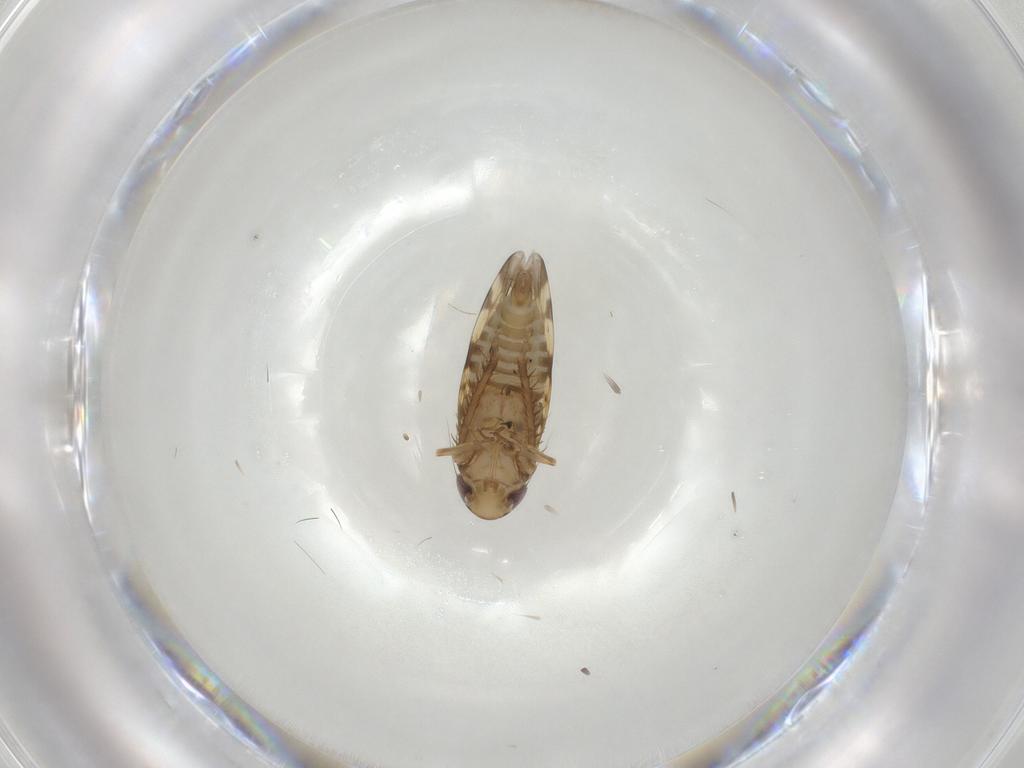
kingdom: Animalia
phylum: Arthropoda
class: Insecta
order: Hemiptera
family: Cicadellidae
